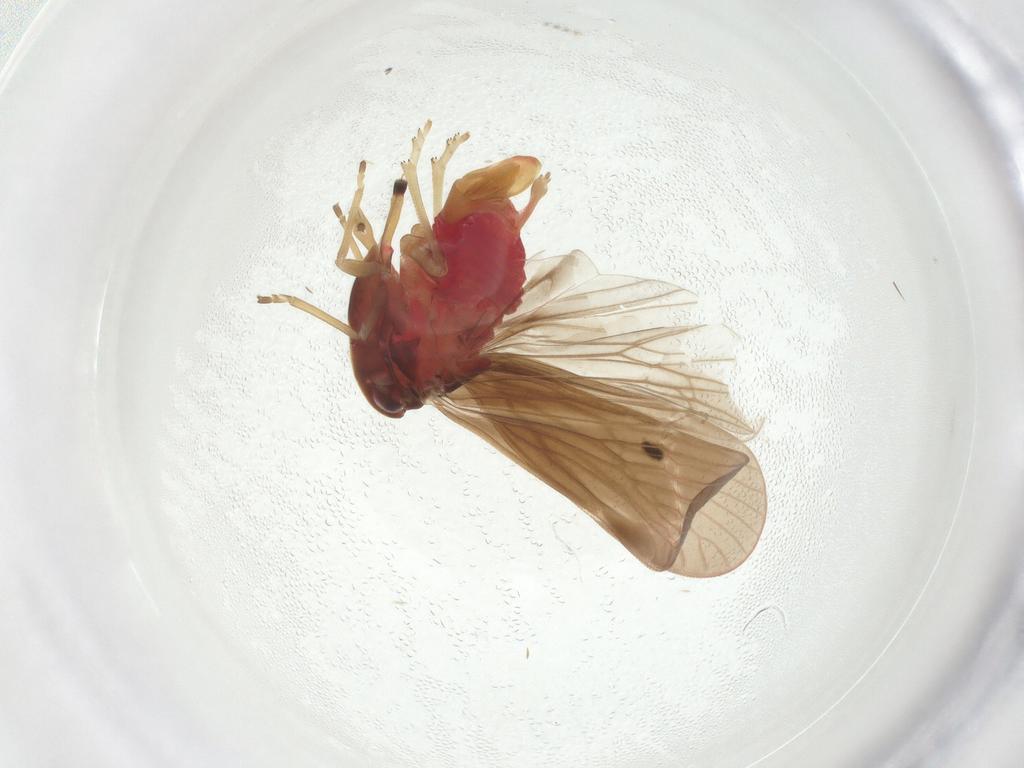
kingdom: Animalia
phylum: Arthropoda
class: Insecta
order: Hemiptera
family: Derbidae
